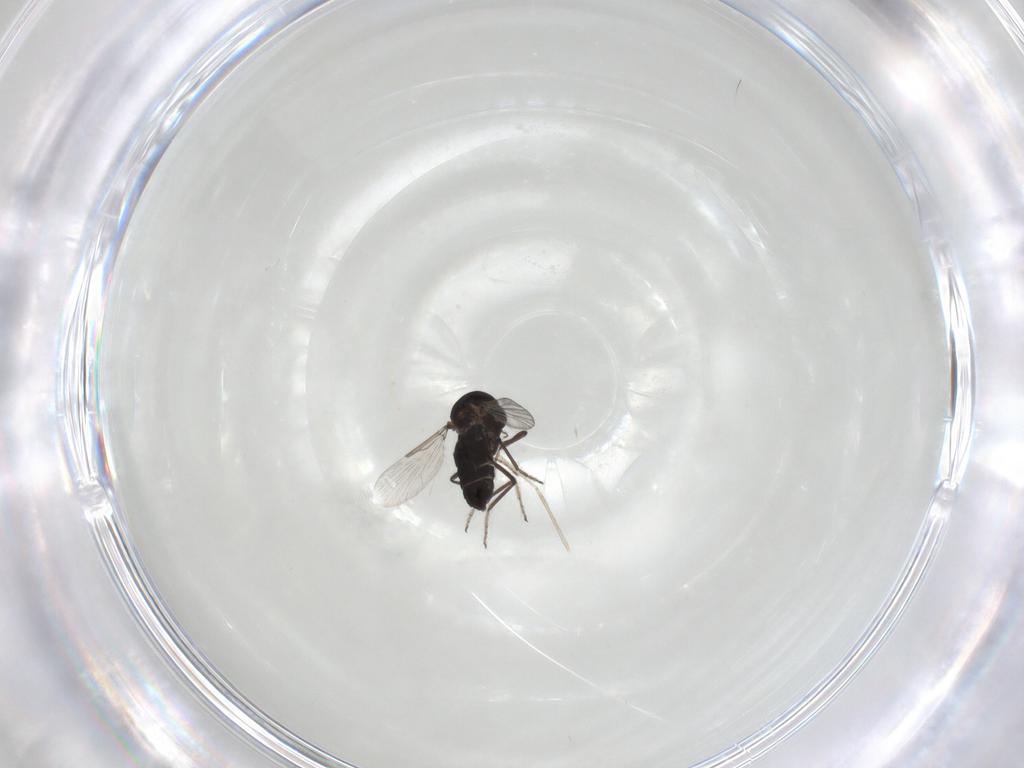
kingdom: Animalia
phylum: Arthropoda
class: Insecta
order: Diptera
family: Ceratopogonidae
